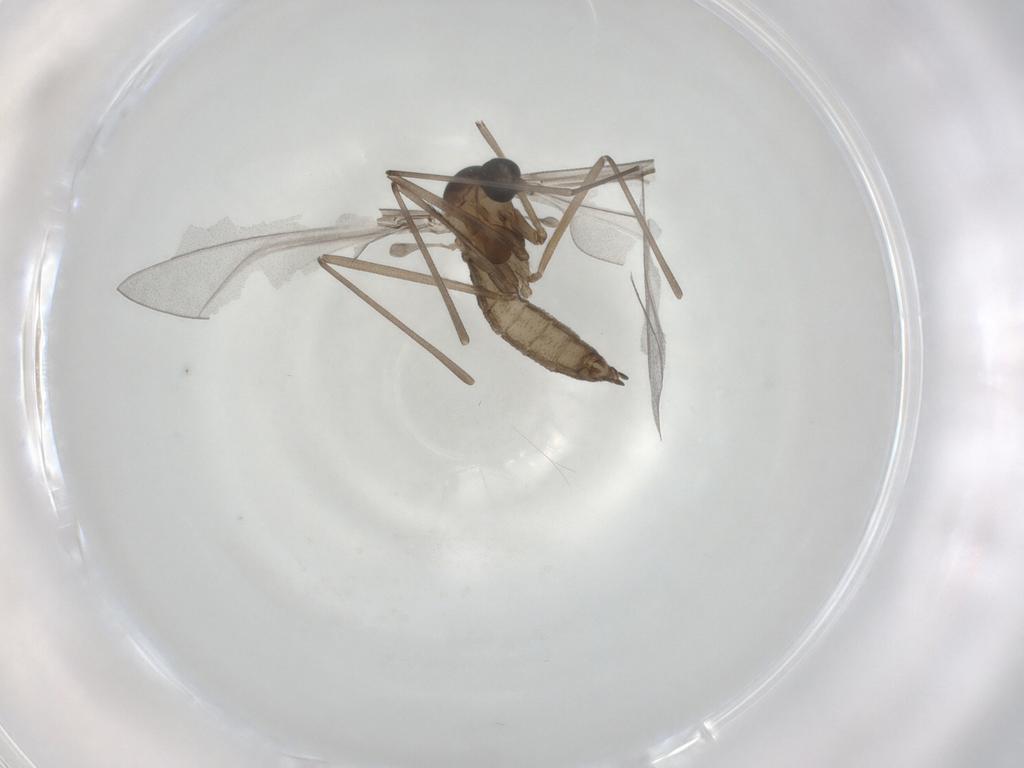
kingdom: Animalia
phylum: Arthropoda
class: Insecta
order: Diptera
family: Cecidomyiidae
